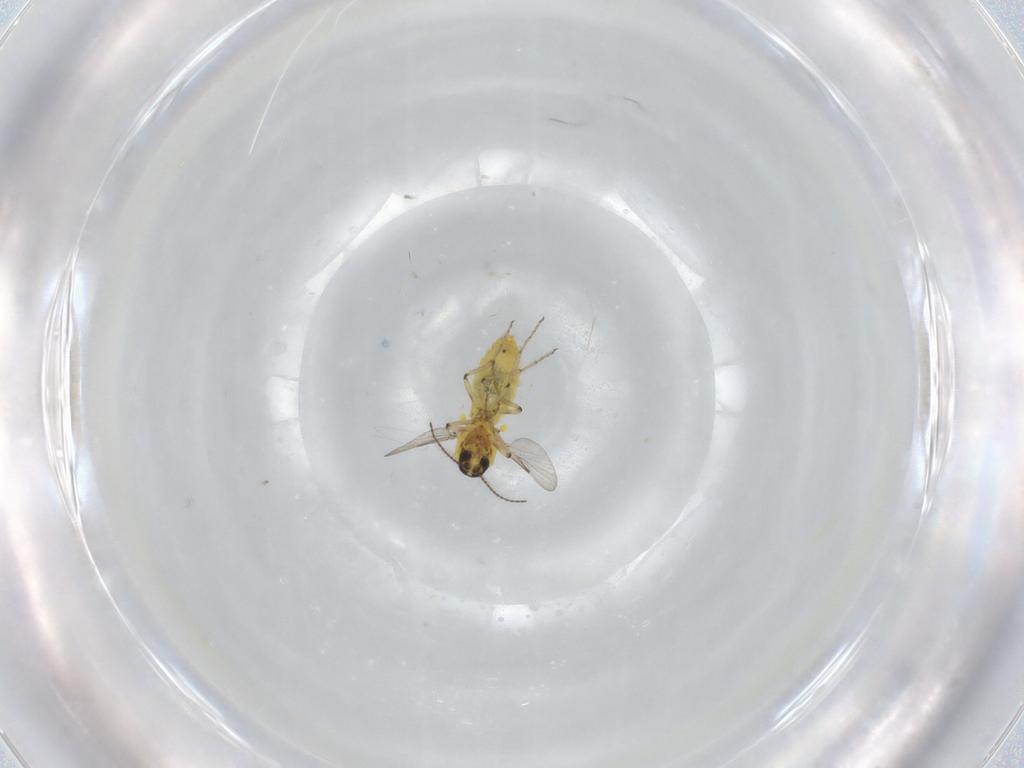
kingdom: Animalia
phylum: Arthropoda
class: Insecta
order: Diptera
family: Ceratopogonidae
